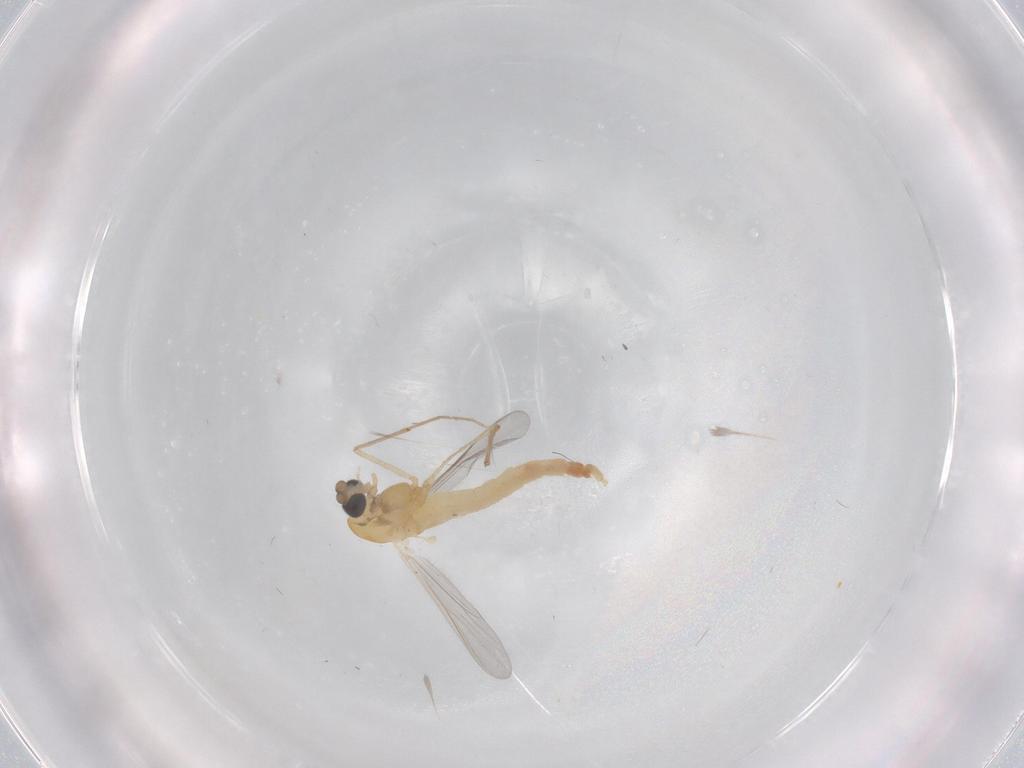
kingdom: Animalia
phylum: Arthropoda
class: Insecta
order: Diptera
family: Chironomidae
